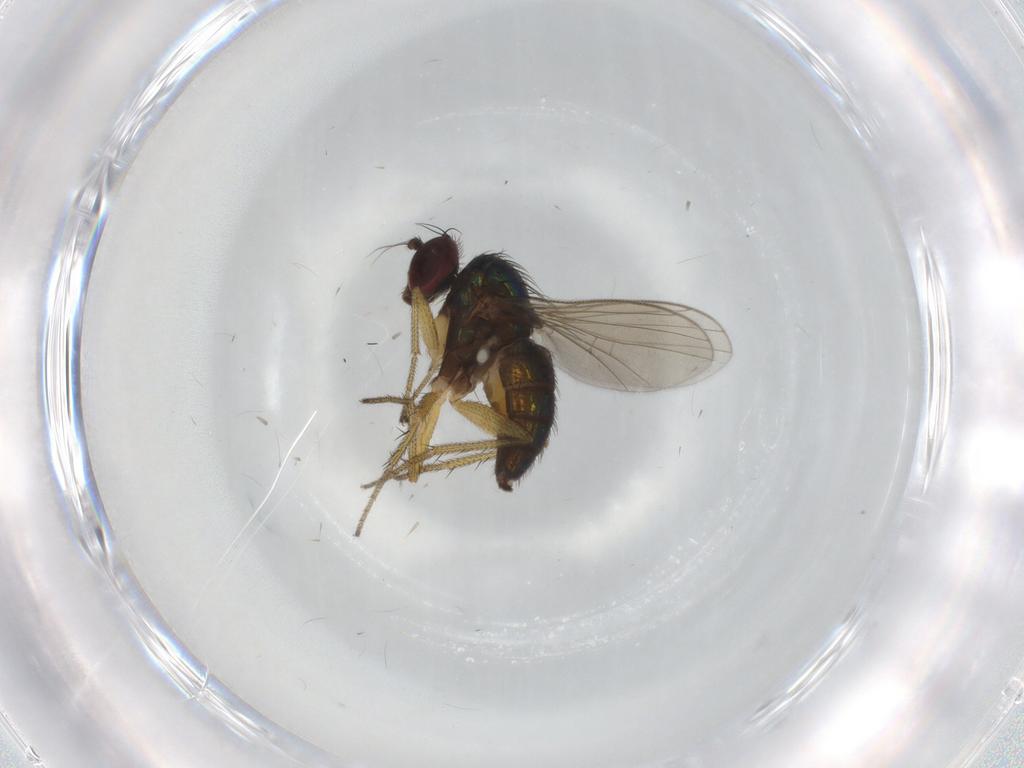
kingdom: Animalia
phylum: Arthropoda
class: Insecta
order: Diptera
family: Dolichopodidae
